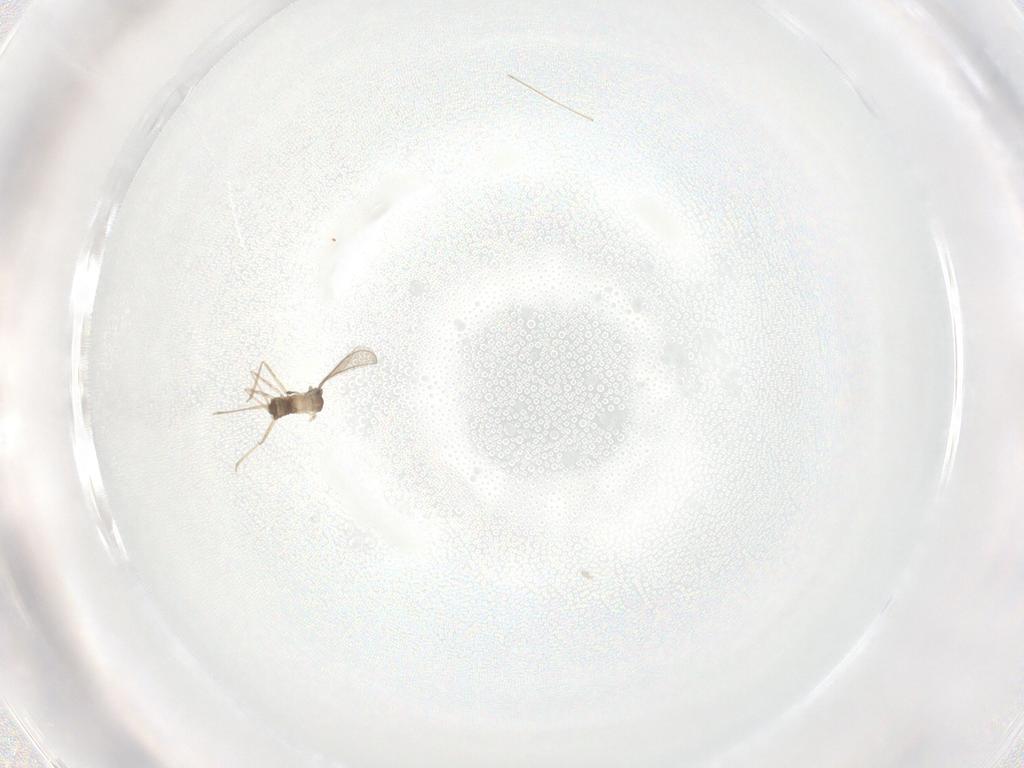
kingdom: Animalia
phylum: Arthropoda
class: Insecta
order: Diptera
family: Cecidomyiidae
